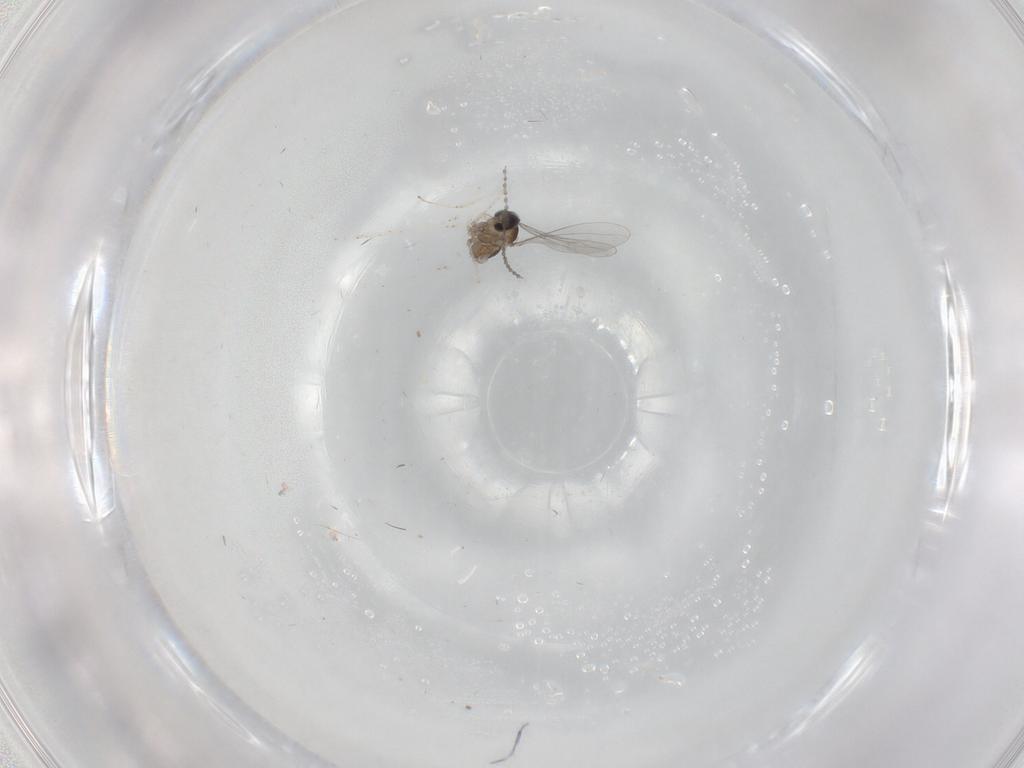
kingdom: Animalia
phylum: Arthropoda
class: Insecta
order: Diptera
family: Cecidomyiidae
